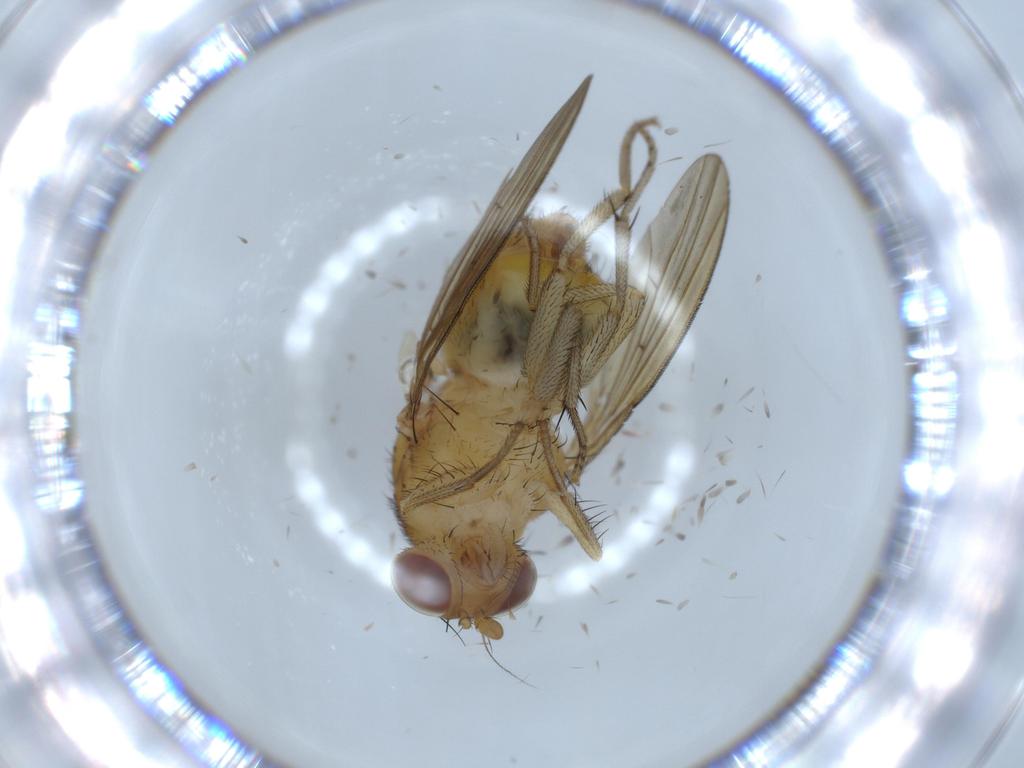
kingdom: Animalia
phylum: Arthropoda
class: Insecta
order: Diptera
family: Lauxaniidae
